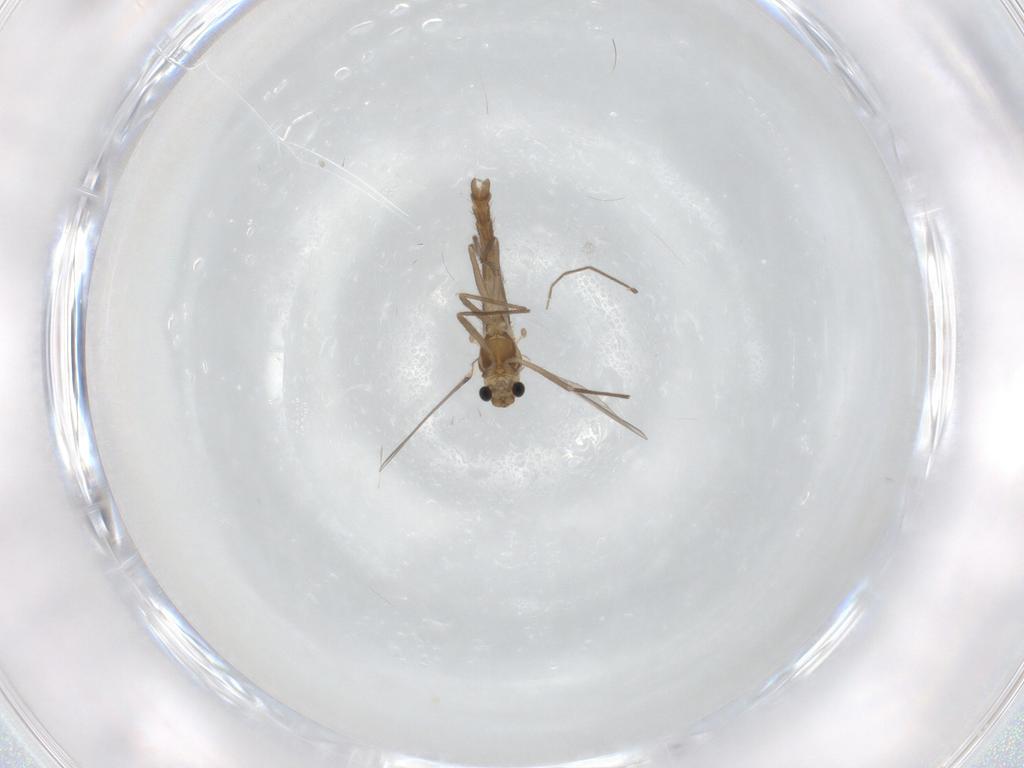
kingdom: Animalia
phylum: Arthropoda
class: Insecta
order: Diptera
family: Chironomidae
